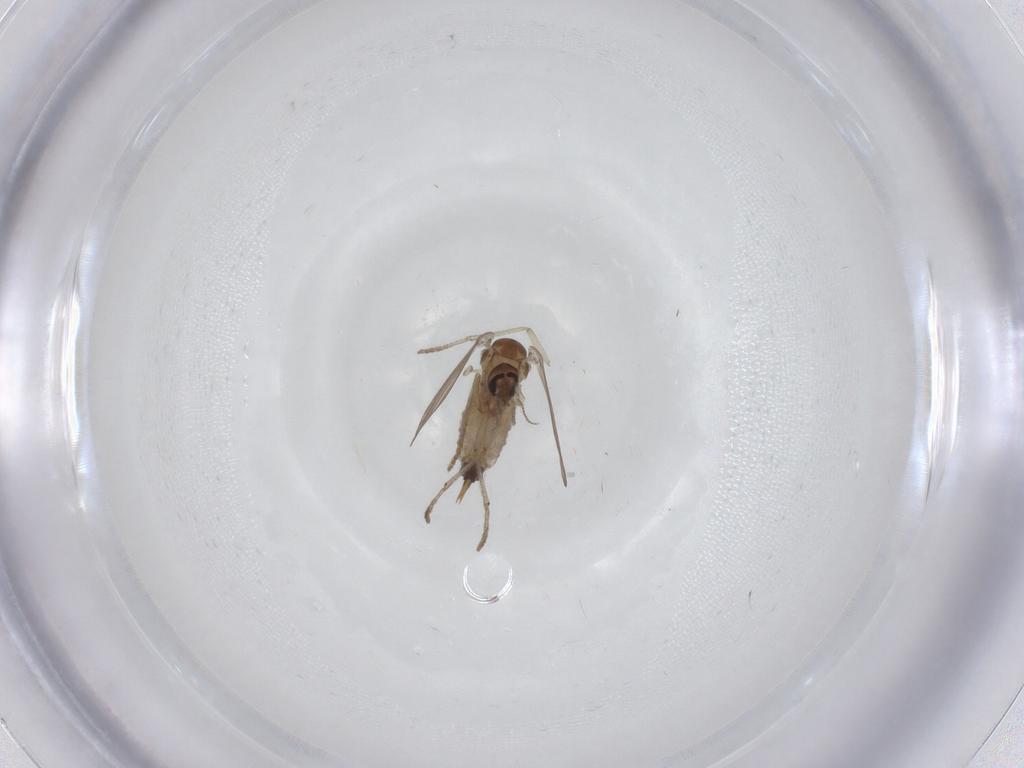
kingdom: Animalia
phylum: Arthropoda
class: Insecta
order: Diptera
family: Psychodidae
